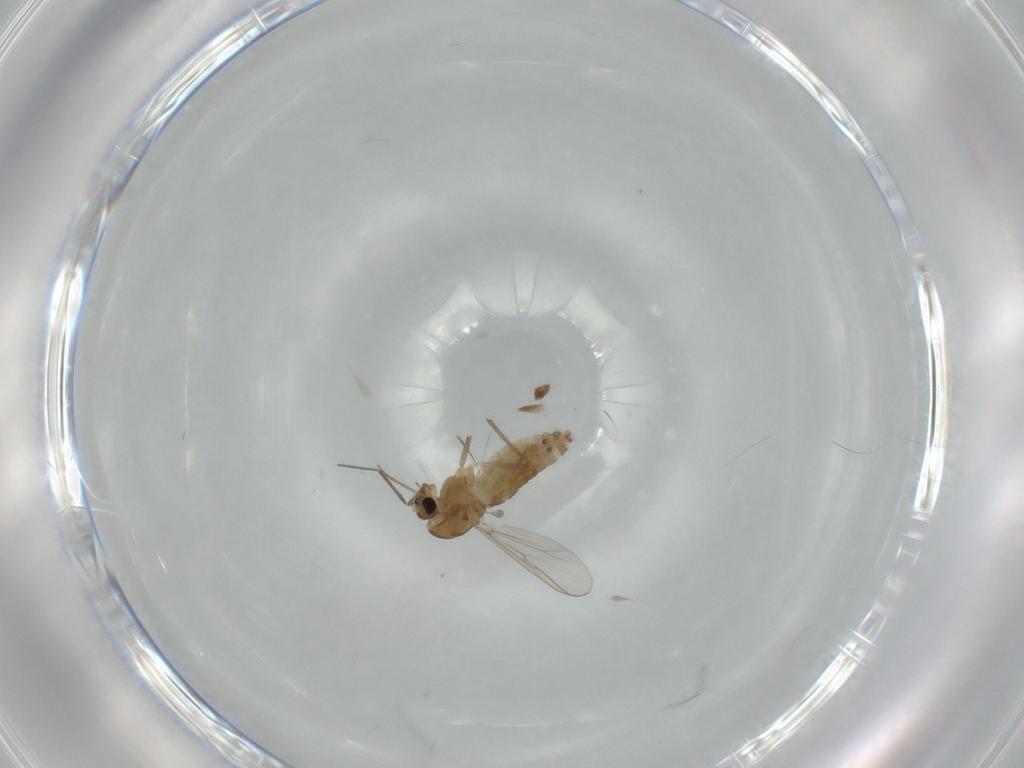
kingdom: Animalia
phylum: Arthropoda
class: Insecta
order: Diptera
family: Chironomidae
